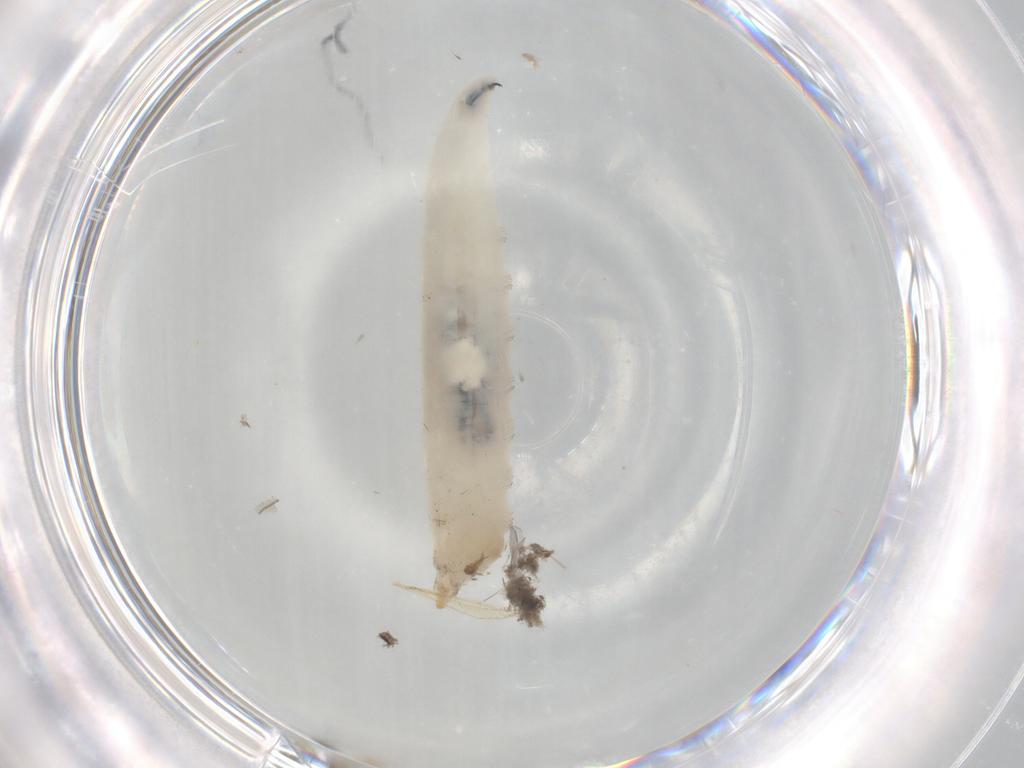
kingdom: Animalia
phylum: Arthropoda
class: Insecta
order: Diptera
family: Drosophilidae
